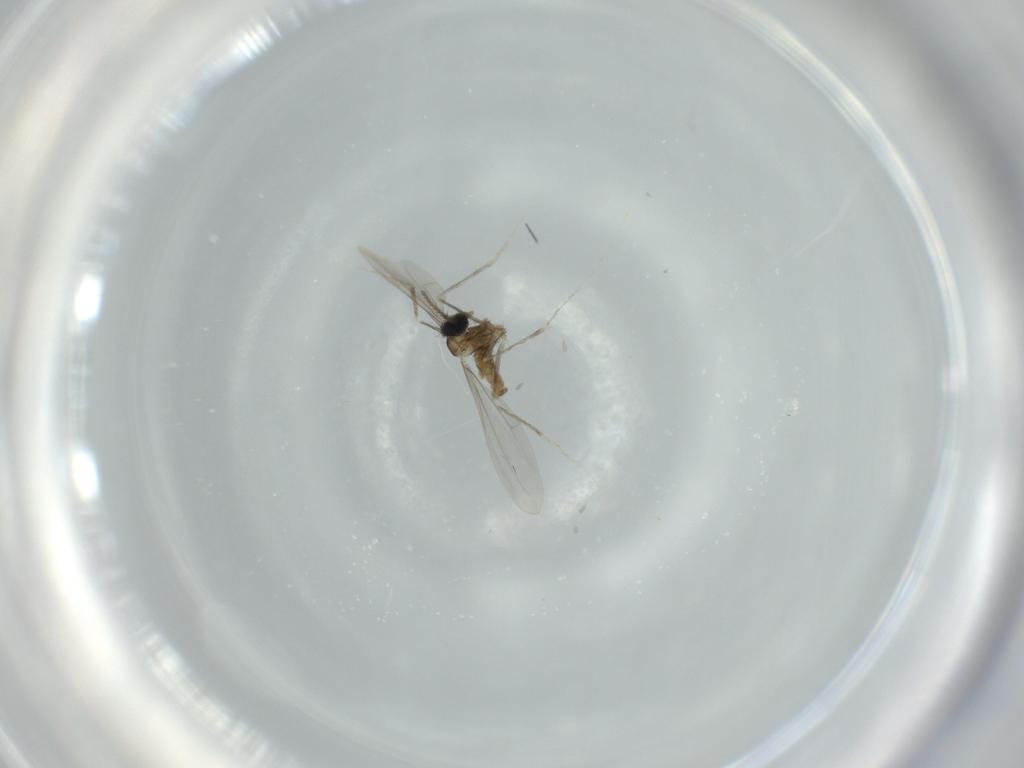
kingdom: Animalia
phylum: Arthropoda
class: Insecta
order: Diptera
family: Cecidomyiidae
